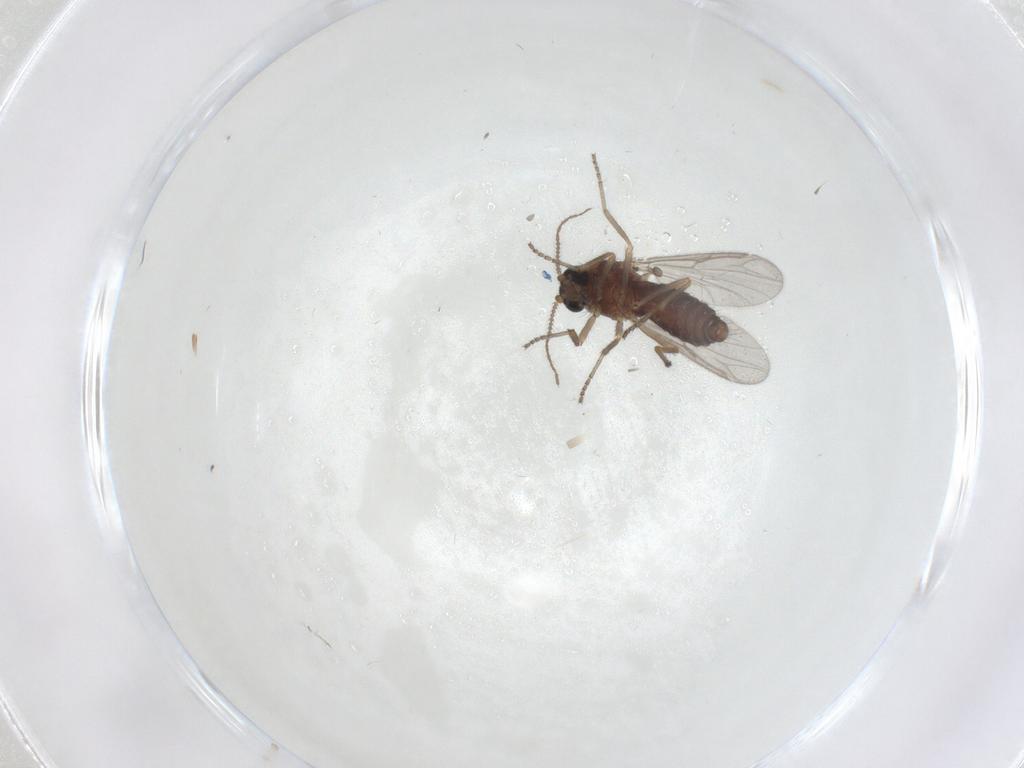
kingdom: Animalia
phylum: Arthropoda
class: Insecta
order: Diptera
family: Ceratopogonidae
